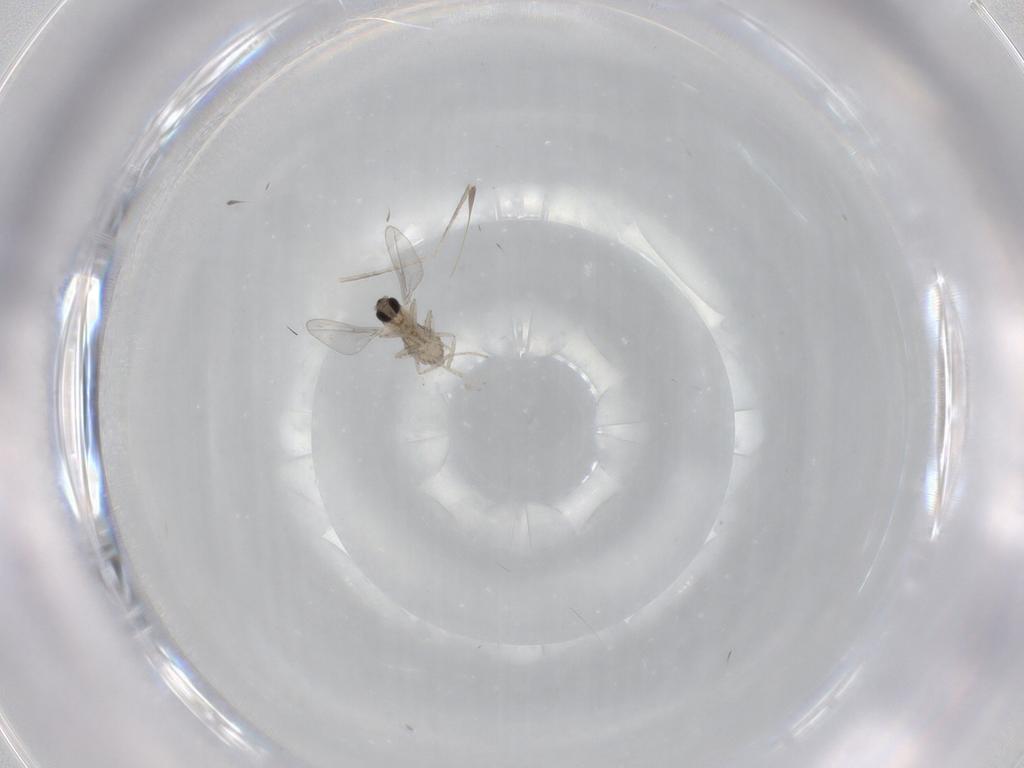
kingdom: Animalia
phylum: Arthropoda
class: Insecta
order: Diptera
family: Cecidomyiidae
